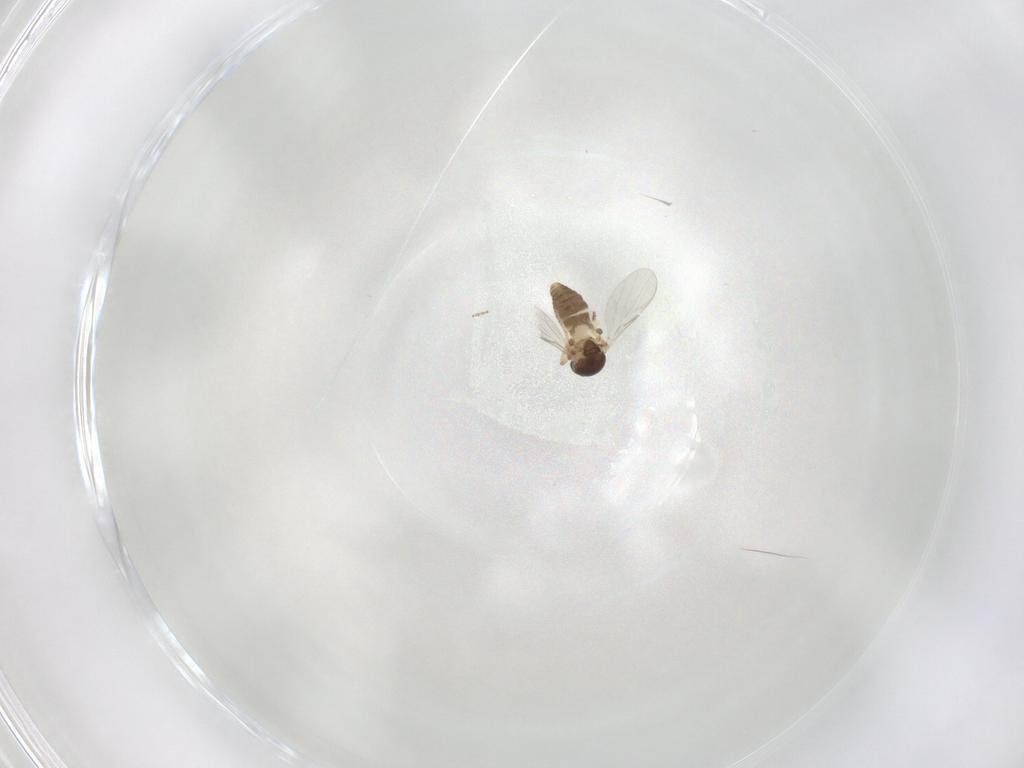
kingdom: Animalia
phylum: Arthropoda
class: Insecta
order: Diptera
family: Ceratopogonidae
